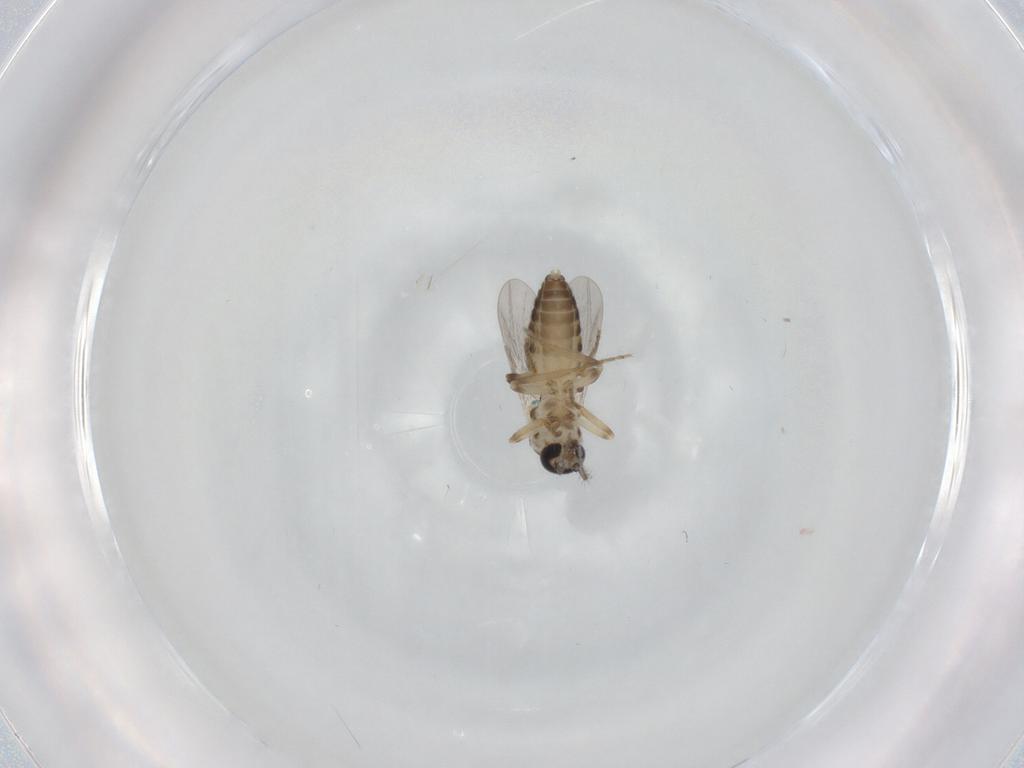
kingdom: Animalia
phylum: Arthropoda
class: Insecta
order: Diptera
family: Ceratopogonidae
